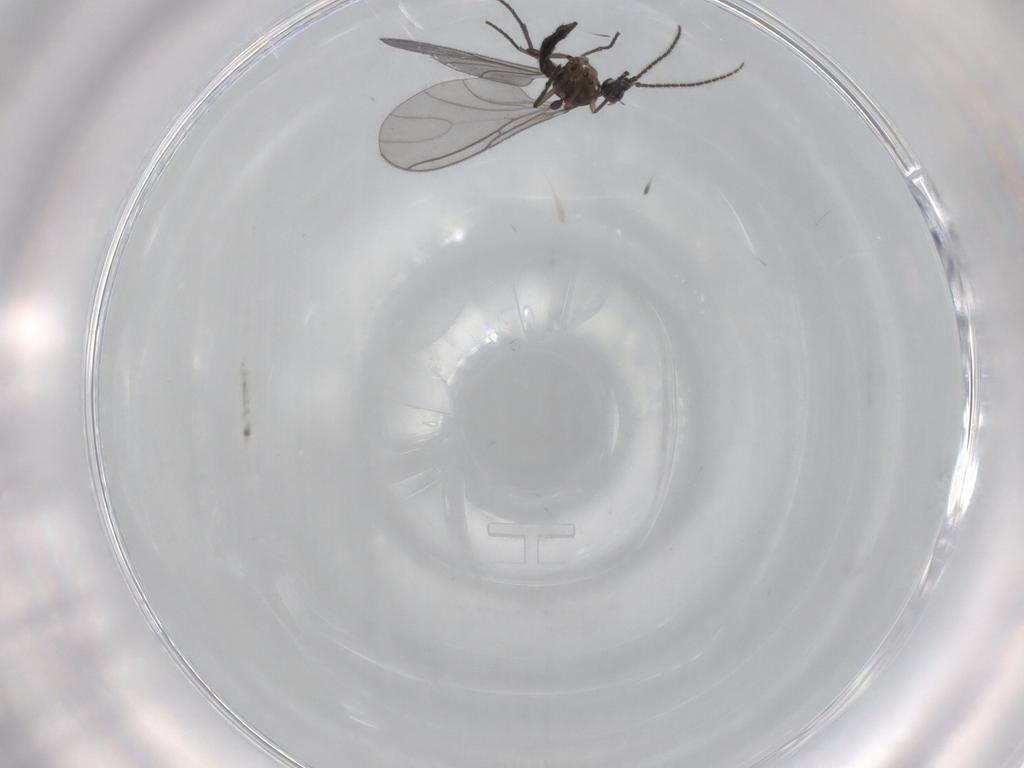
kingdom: Animalia
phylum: Arthropoda
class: Insecta
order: Diptera
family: Sciaridae
